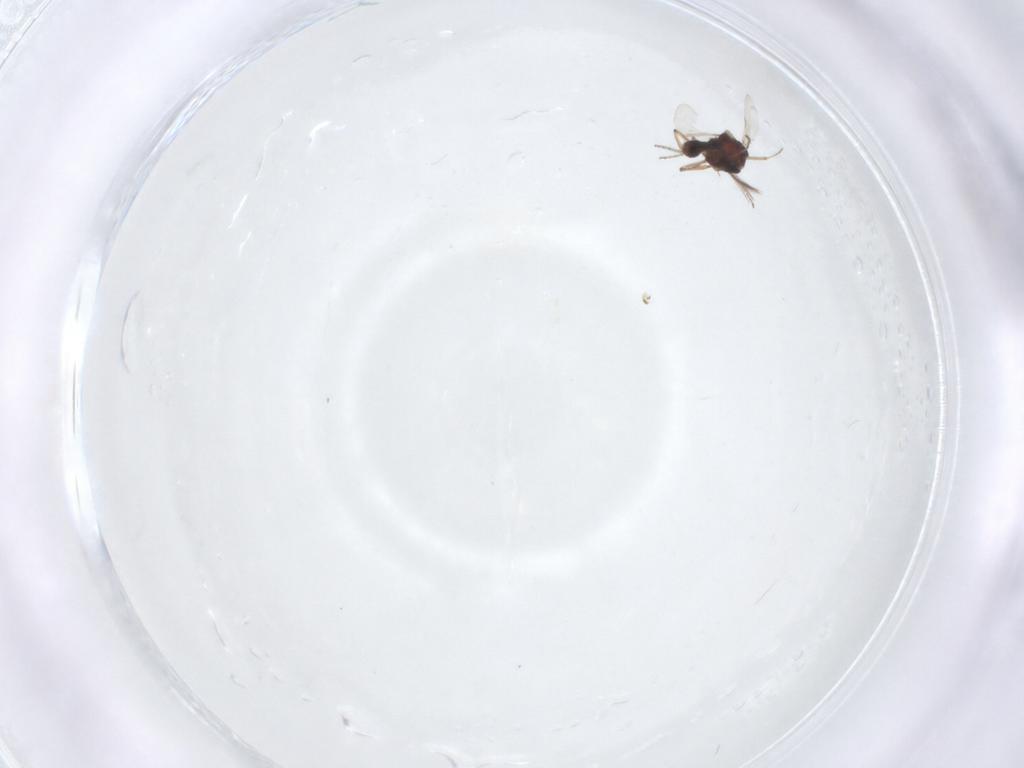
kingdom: Animalia
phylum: Arthropoda
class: Insecta
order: Diptera
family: Ceratopogonidae
